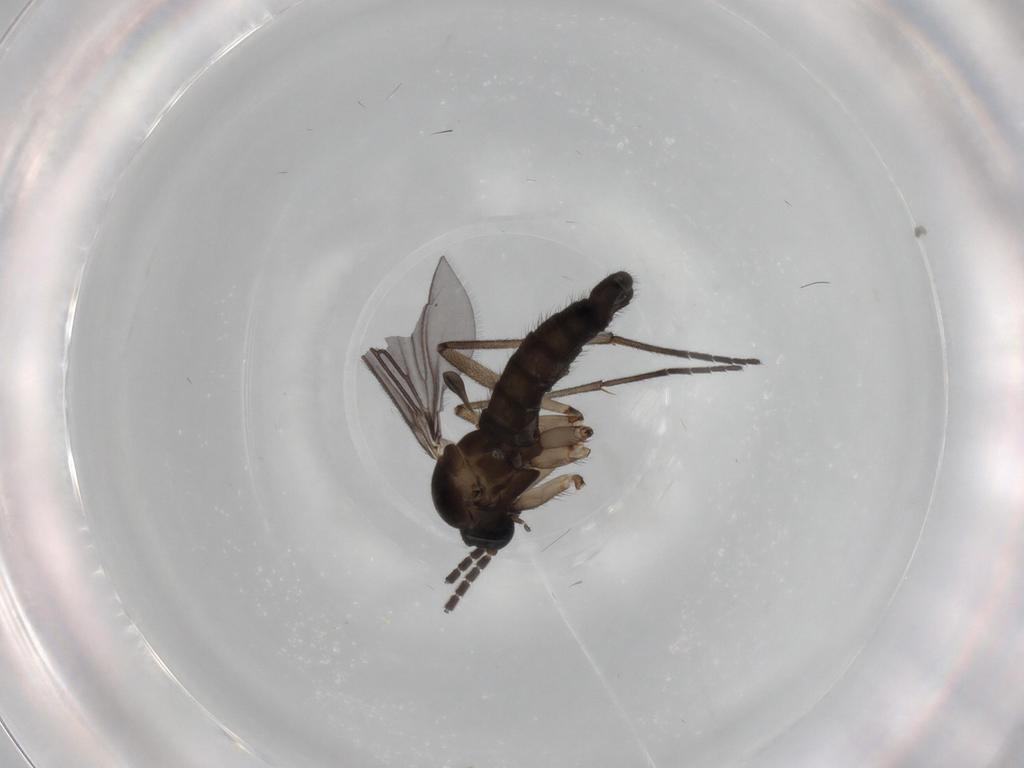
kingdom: Animalia
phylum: Arthropoda
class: Insecta
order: Diptera
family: Sciaridae
